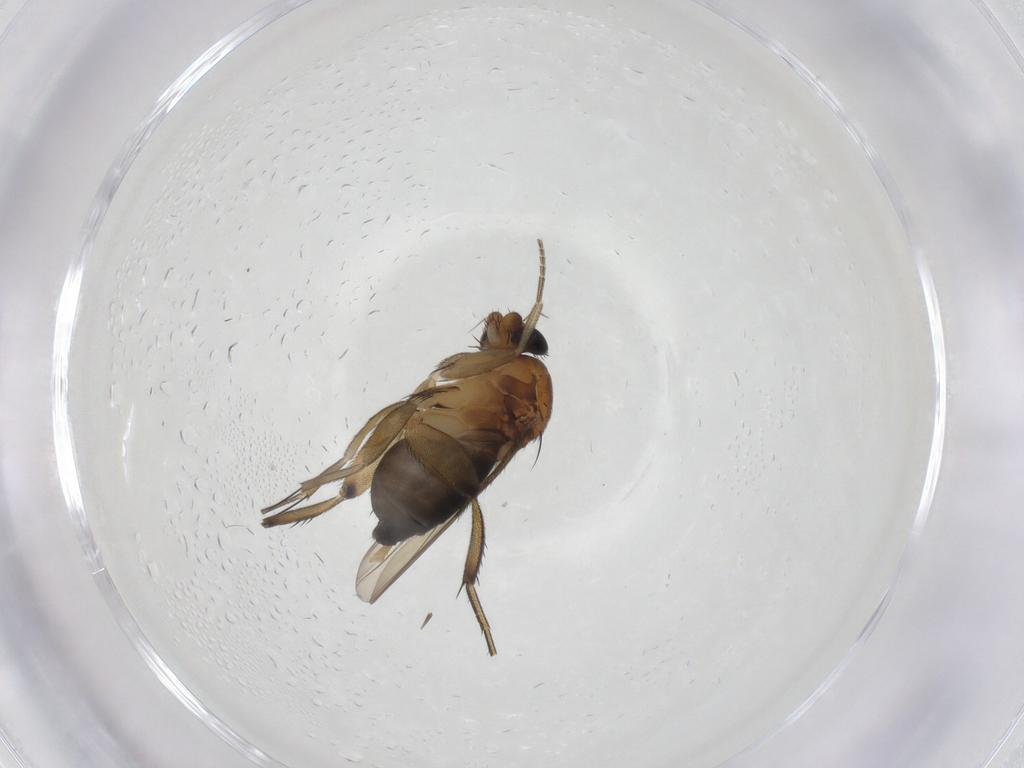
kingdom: Animalia
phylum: Arthropoda
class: Insecta
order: Diptera
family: Phoridae
